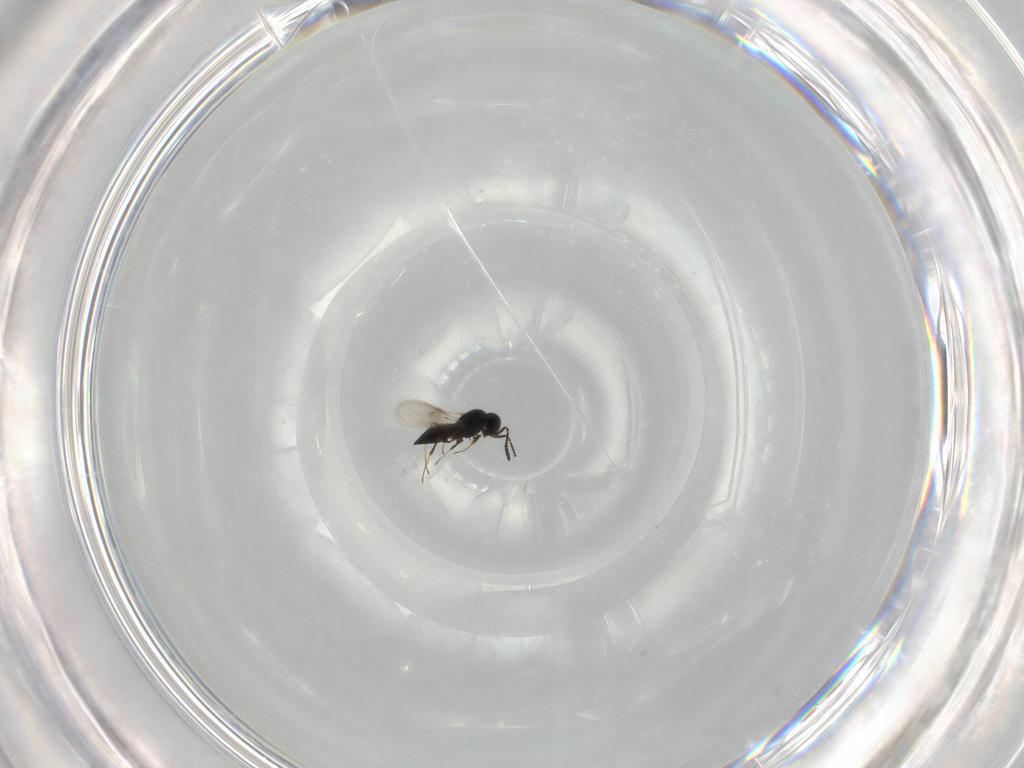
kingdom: Animalia
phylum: Arthropoda
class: Insecta
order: Hymenoptera
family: Scelionidae
